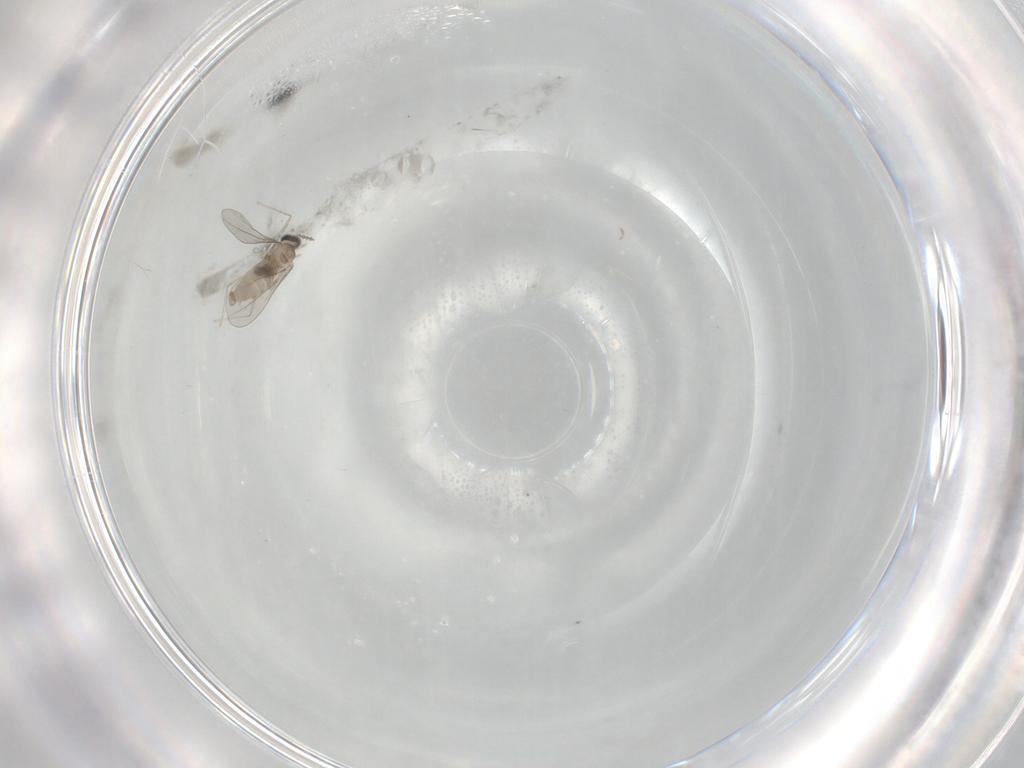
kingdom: Animalia
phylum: Arthropoda
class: Insecta
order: Diptera
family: Cecidomyiidae
